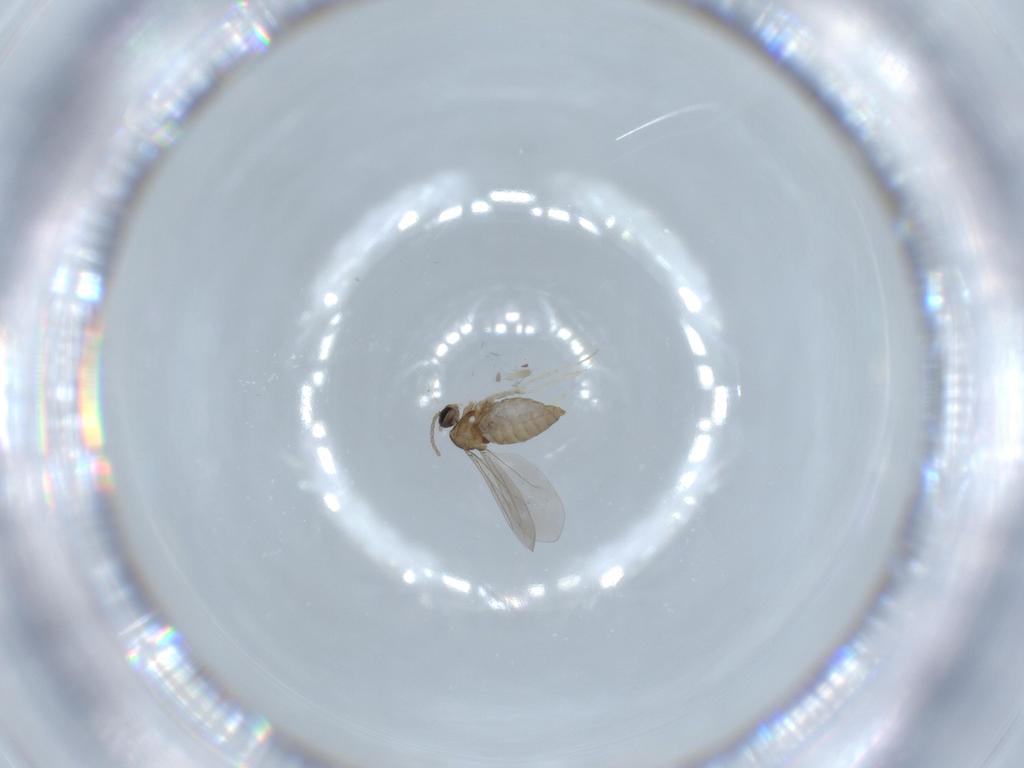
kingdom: Animalia
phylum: Arthropoda
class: Insecta
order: Diptera
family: Cecidomyiidae
